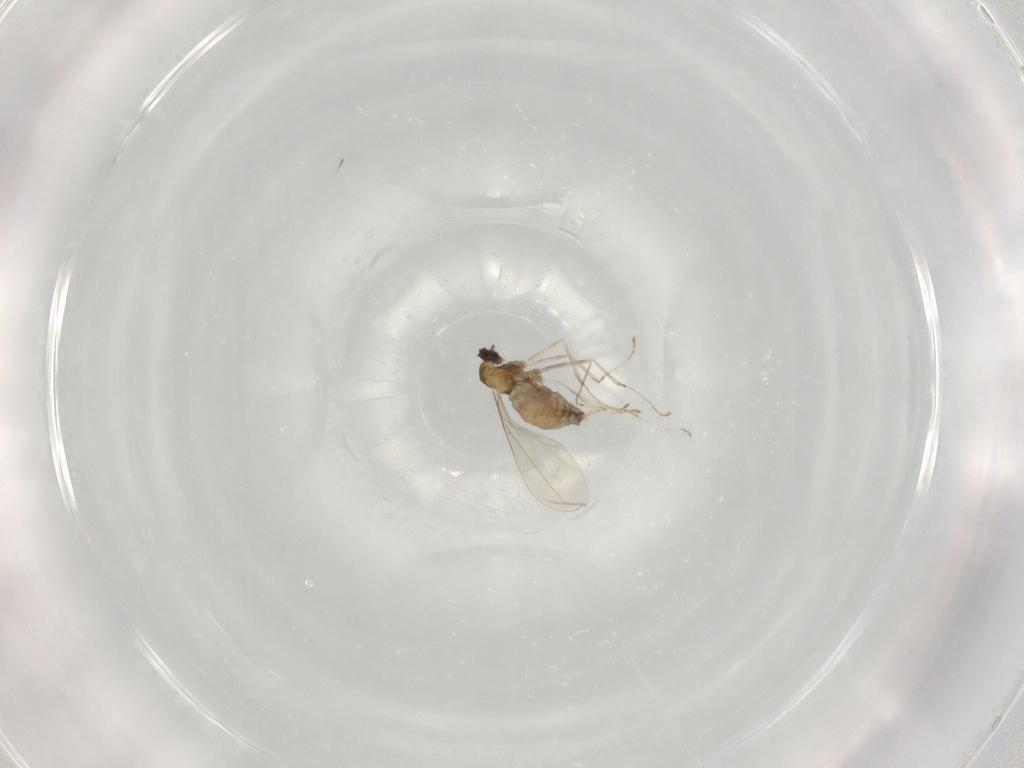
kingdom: Animalia
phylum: Arthropoda
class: Insecta
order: Diptera
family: Cecidomyiidae
